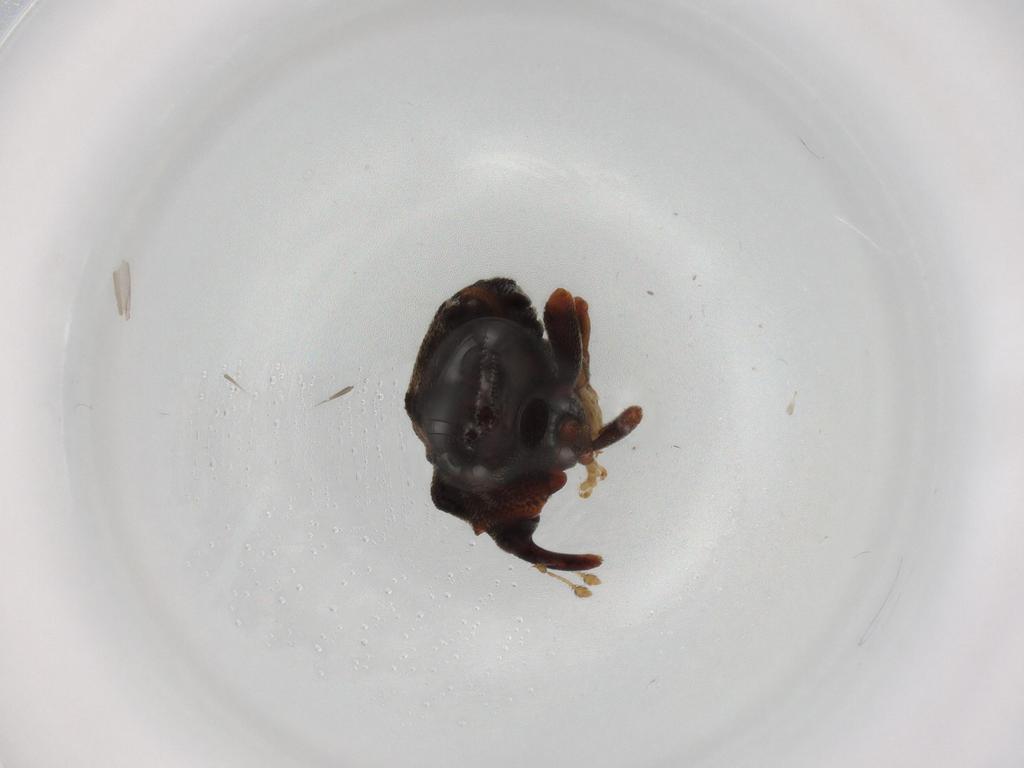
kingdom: Animalia
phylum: Arthropoda
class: Insecta
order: Coleoptera
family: Curculionidae
